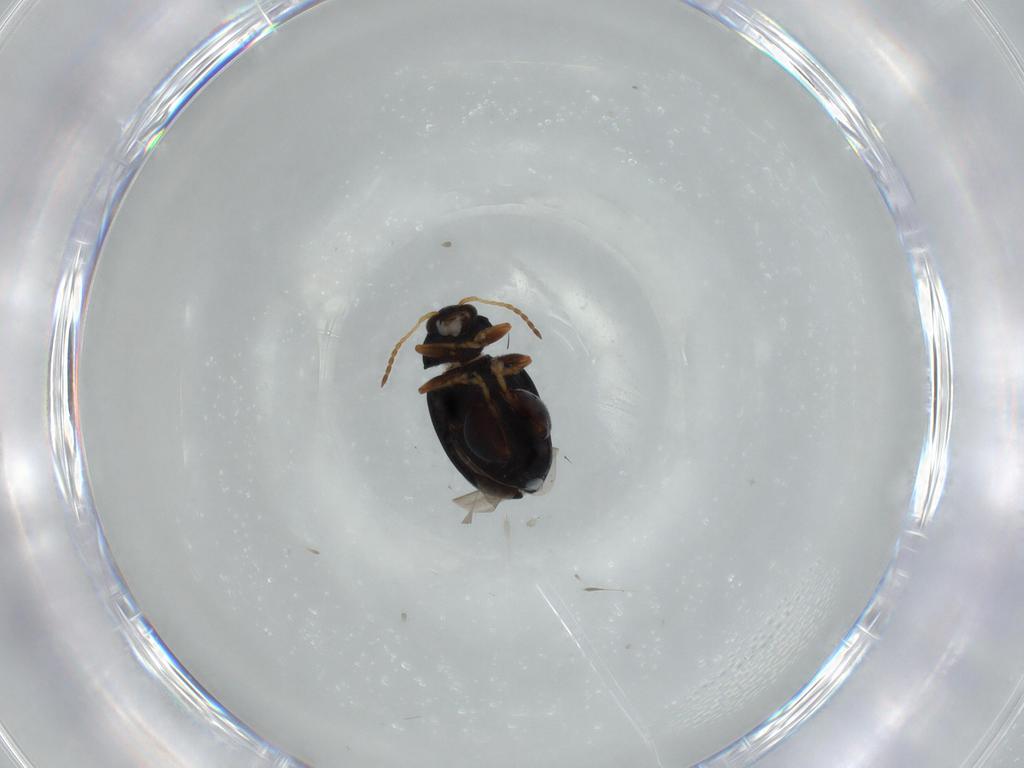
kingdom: Animalia
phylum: Arthropoda
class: Insecta
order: Coleoptera
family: Chrysomelidae
